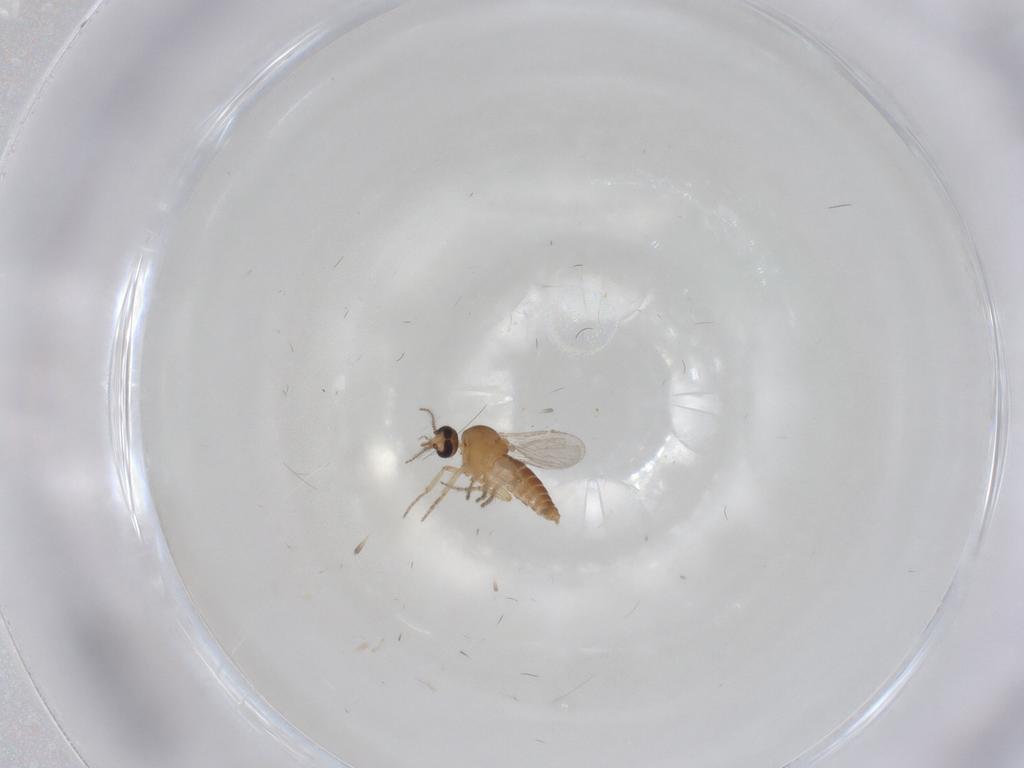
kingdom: Animalia
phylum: Arthropoda
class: Insecta
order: Diptera
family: Ceratopogonidae
